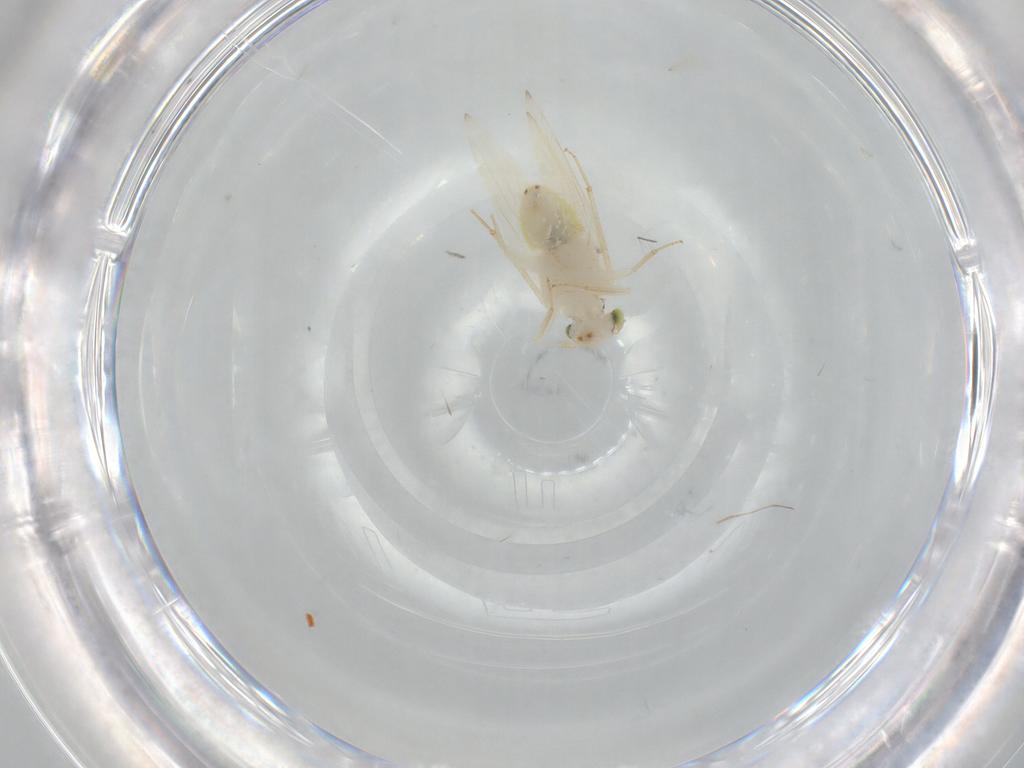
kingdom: Animalia
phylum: Arthropoda
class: Insecta
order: Psocodea
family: Lepidopsocidae
